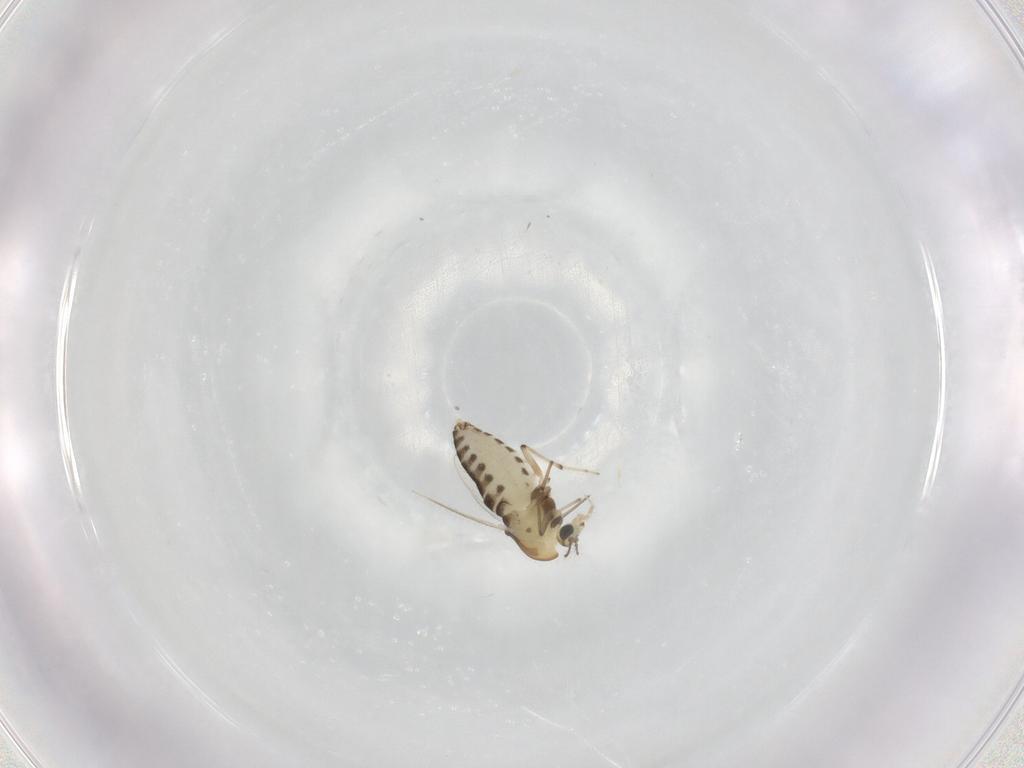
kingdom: Animalia
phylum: Arthropoda
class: Insecta
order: Diptera
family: Chironomidae
